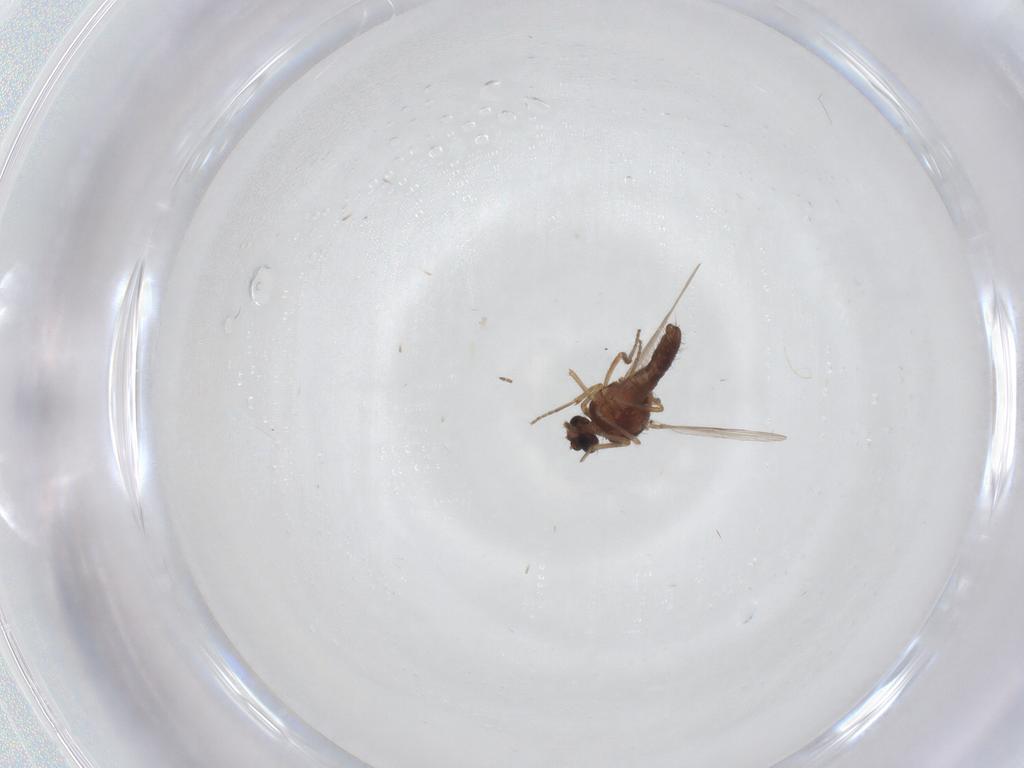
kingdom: Animalia
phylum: Arthropoda
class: Insecta
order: Diptera
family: Ceratopogonidae
